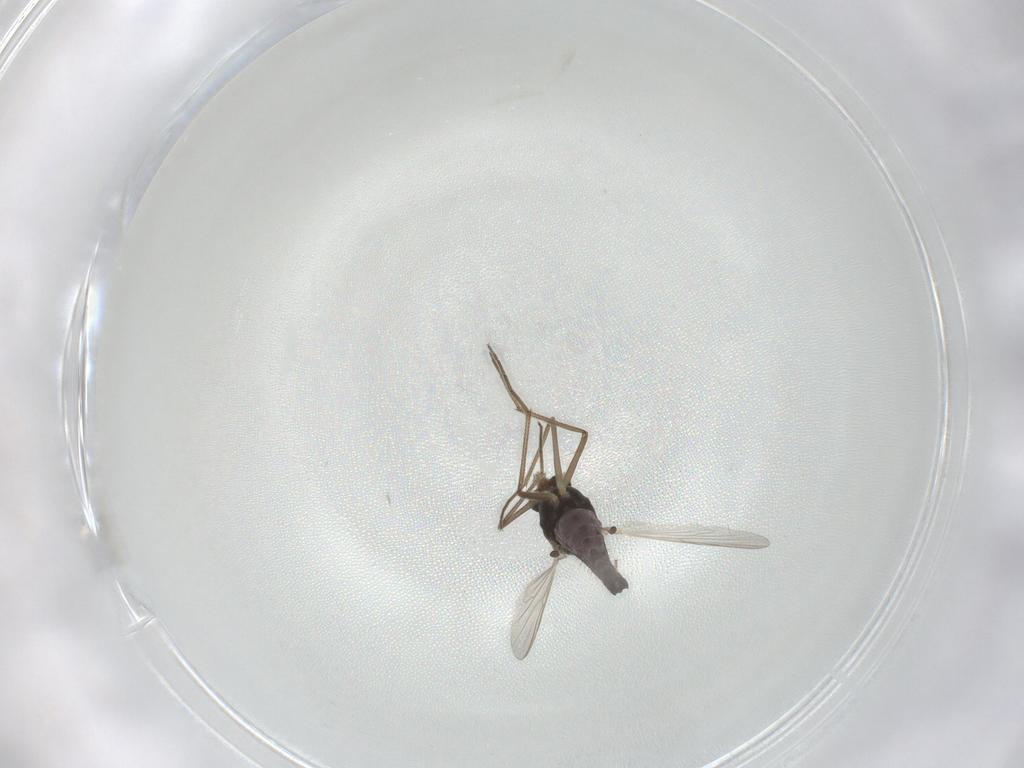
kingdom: Animalia
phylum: Arthropoda
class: Insecta
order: Diptera
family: Chironomidae
